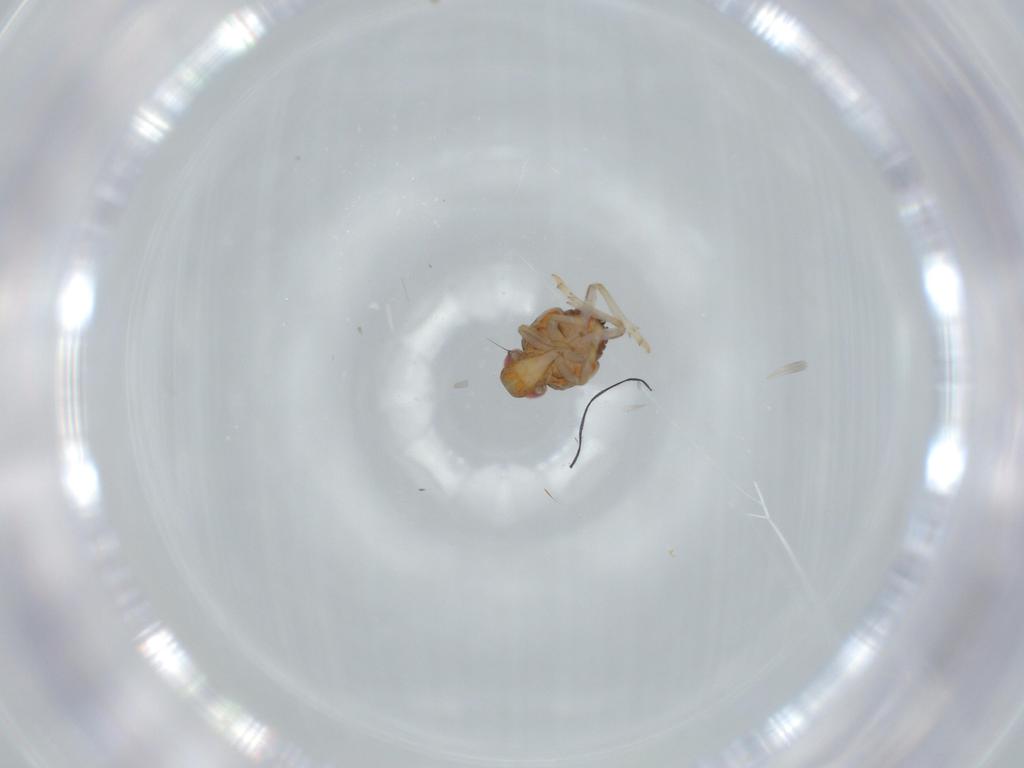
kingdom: Animalia
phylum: Arthropoda
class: Insecta
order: Hemiptera
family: Issidae
